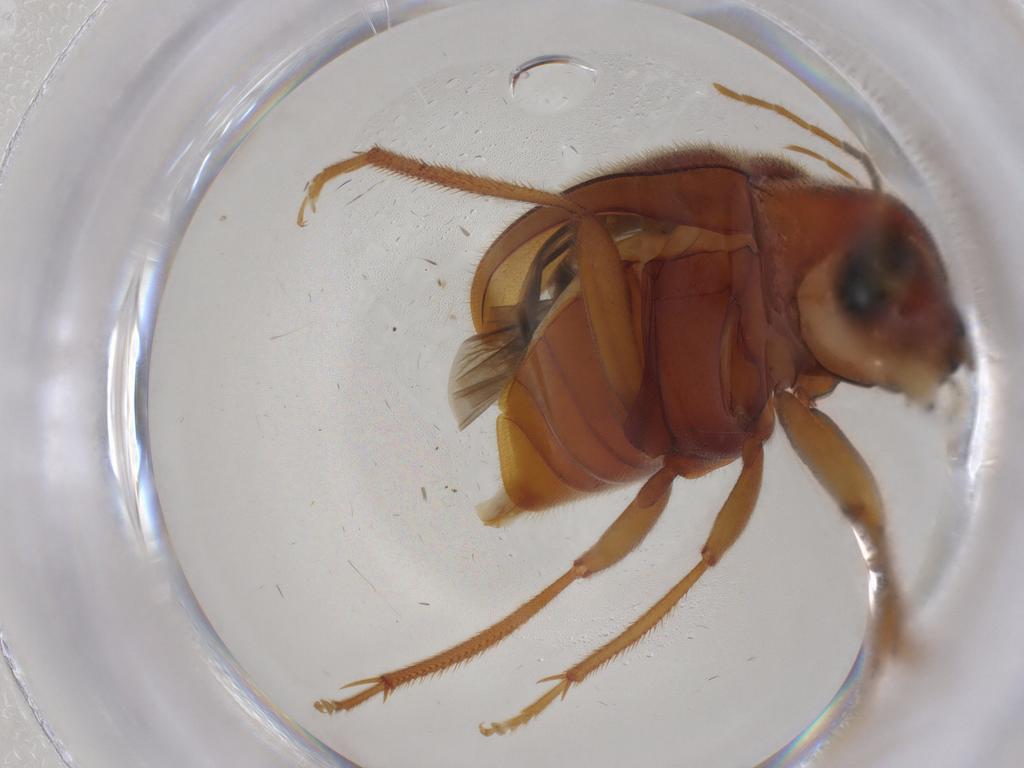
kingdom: Animalia
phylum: Arthropoda
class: Insecta
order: Coleoptera
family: Ptilodactylidae
